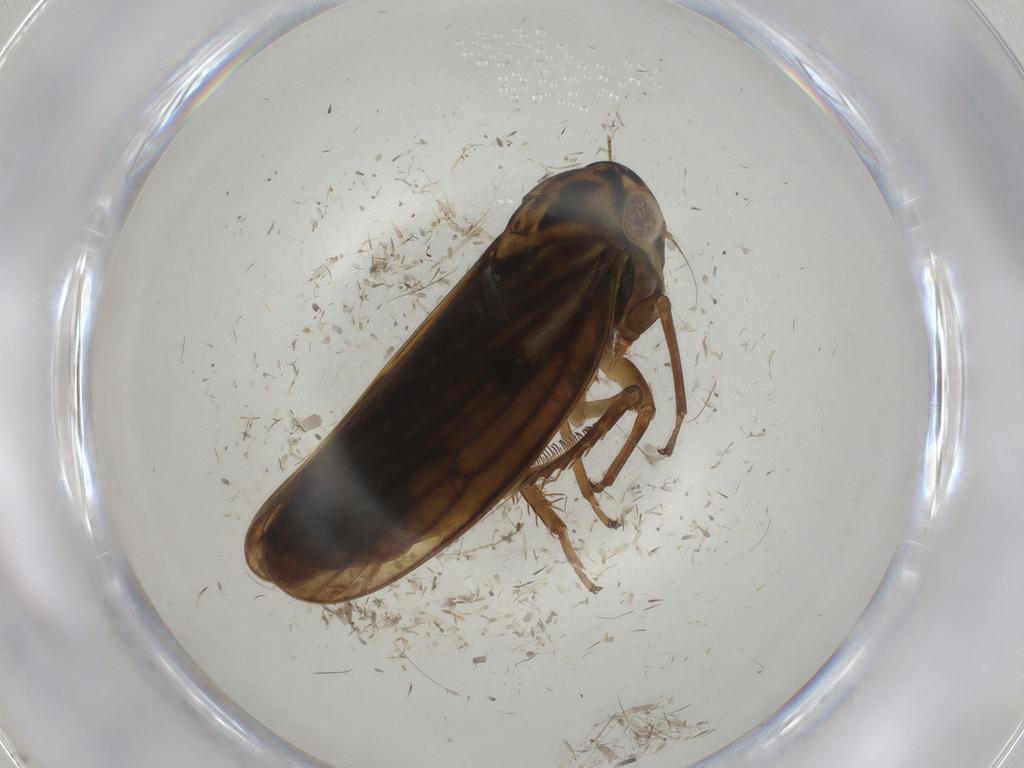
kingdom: Animalia
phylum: Arthropoda
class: Insecta
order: Hemiptera
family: Cicadellidae
